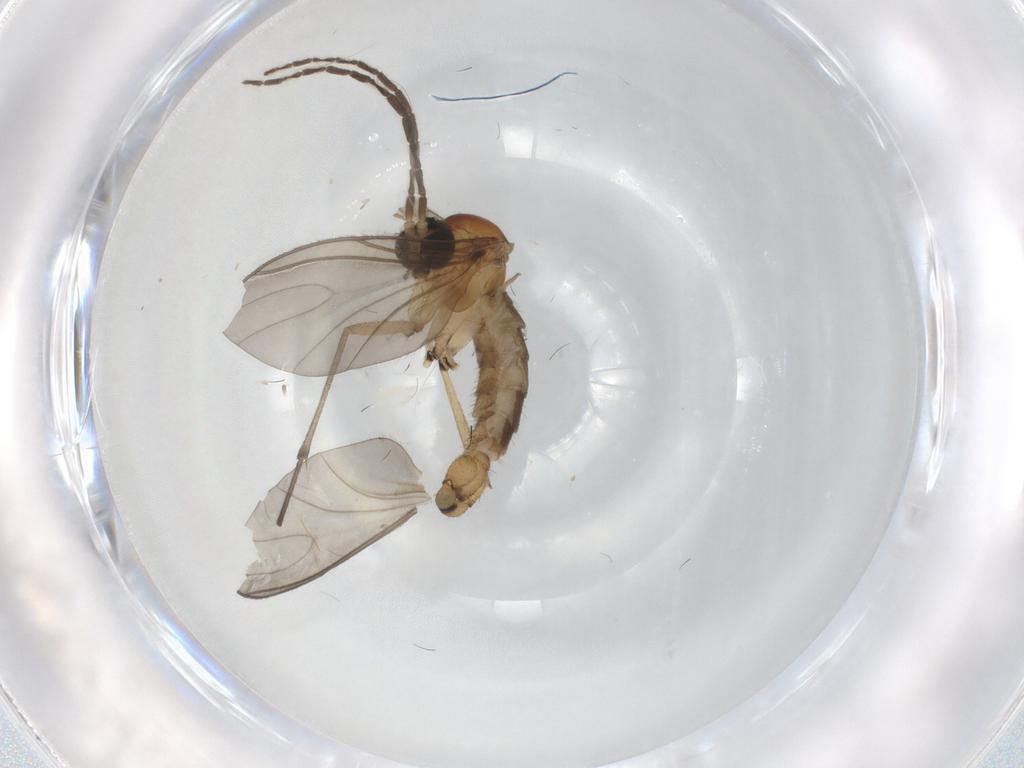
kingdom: Animalia
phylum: Arthropoda
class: Insecta
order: Diptera
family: Sciaridae
